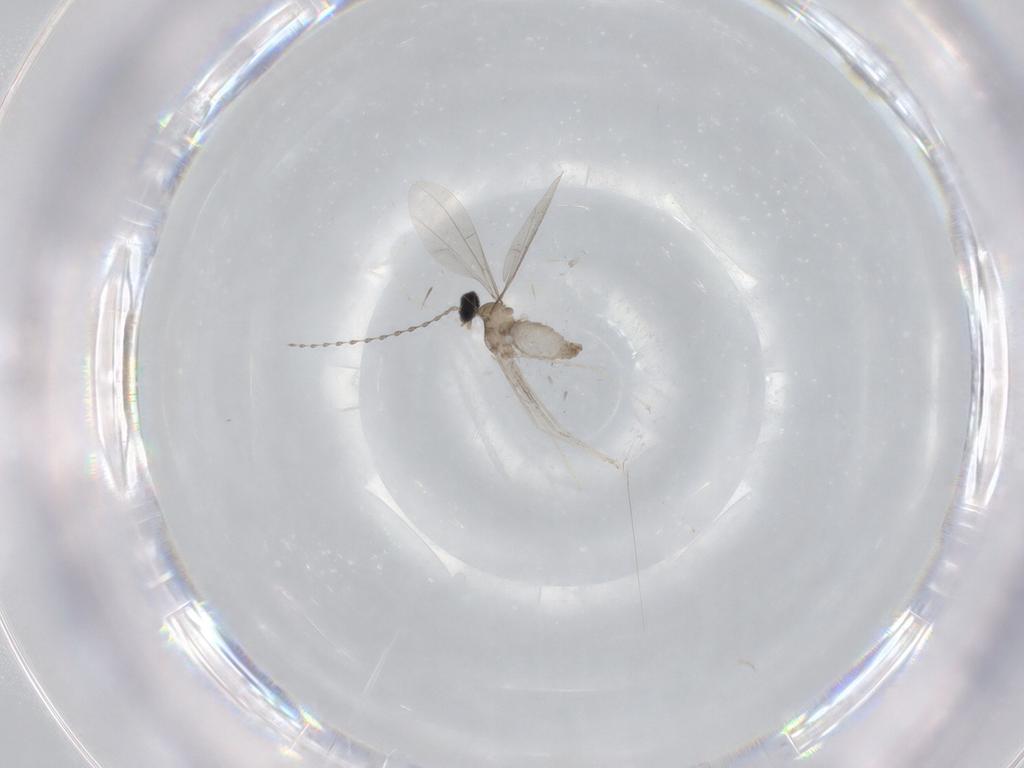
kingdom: Animalia
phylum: Arthropoda
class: Insecta
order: Diptera
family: Cecidomyiidae
